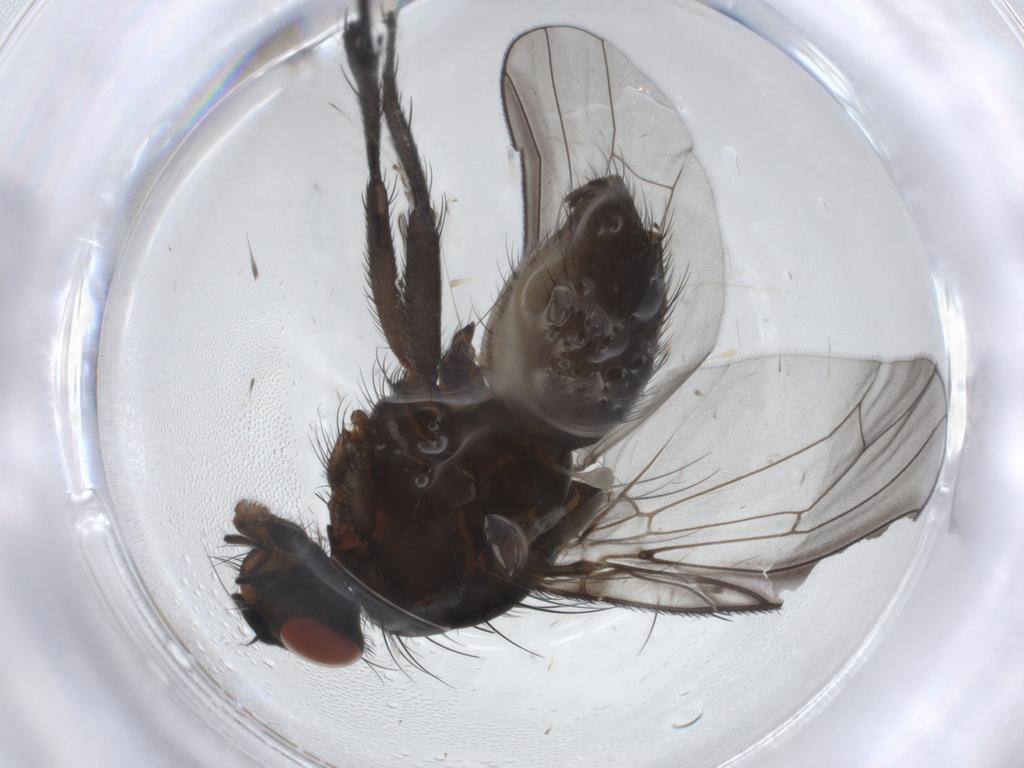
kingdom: Animalia
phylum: Arthropoda
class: Insecta
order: Diptera
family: Anthomyiidae
